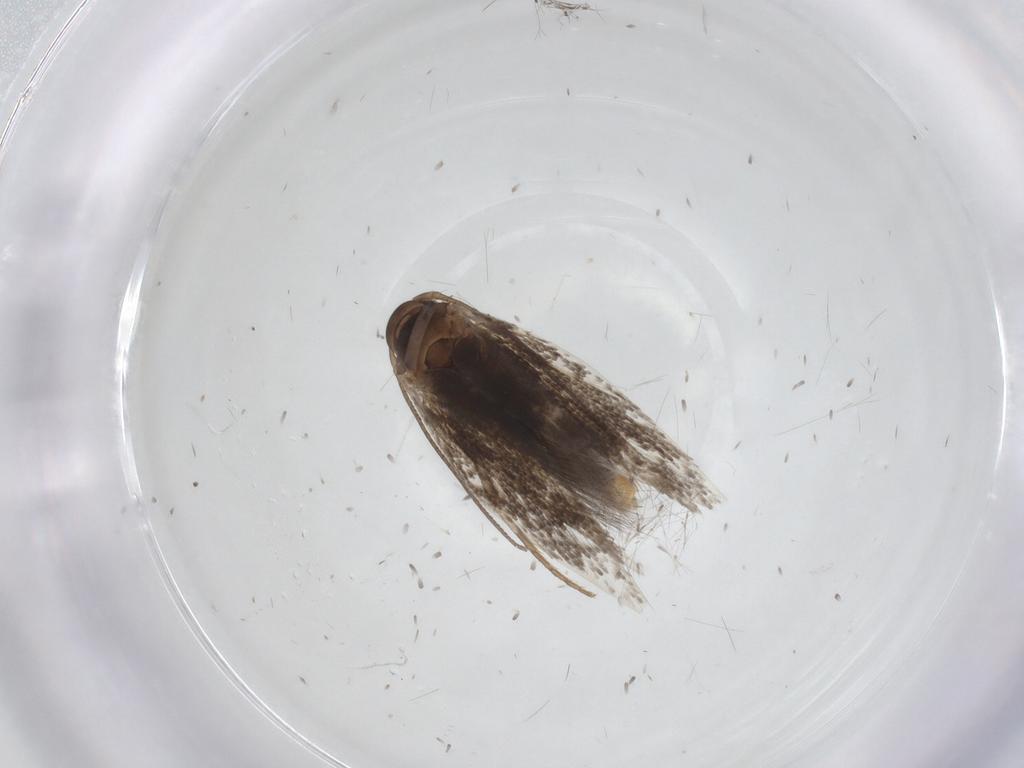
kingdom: Animalia
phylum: Arthropoda
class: Insecta
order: Lepidoptera
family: Elachistidae
